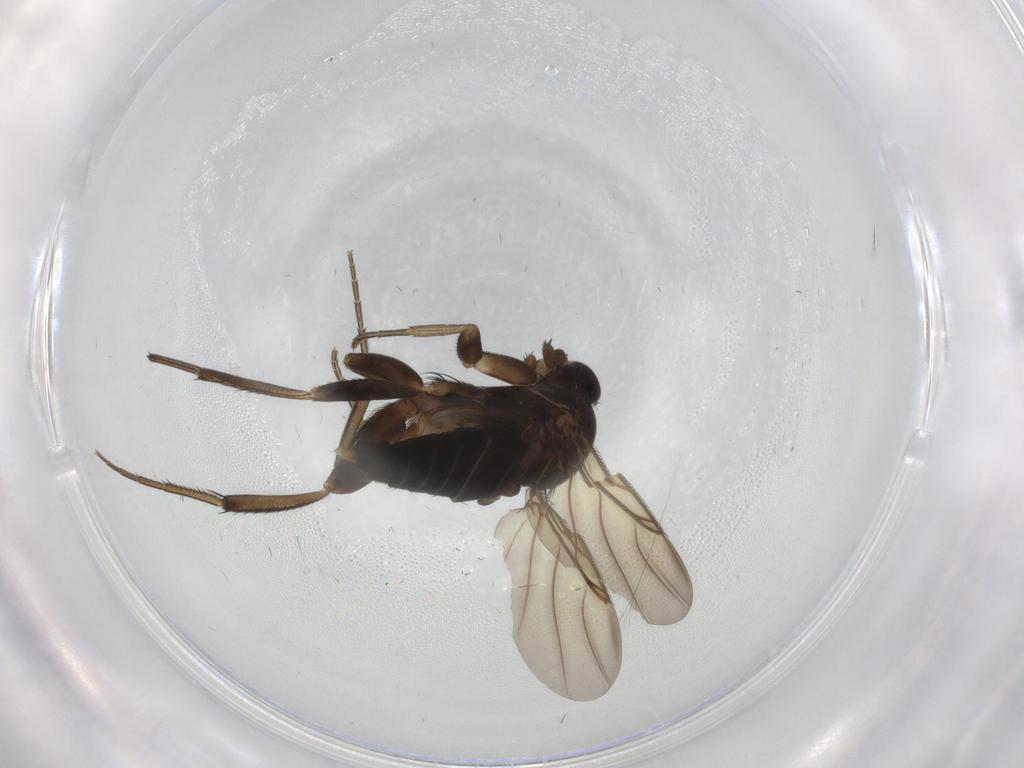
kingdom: Animalia
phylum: Arthropoda
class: Insecta
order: Diptera
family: Phoridae
